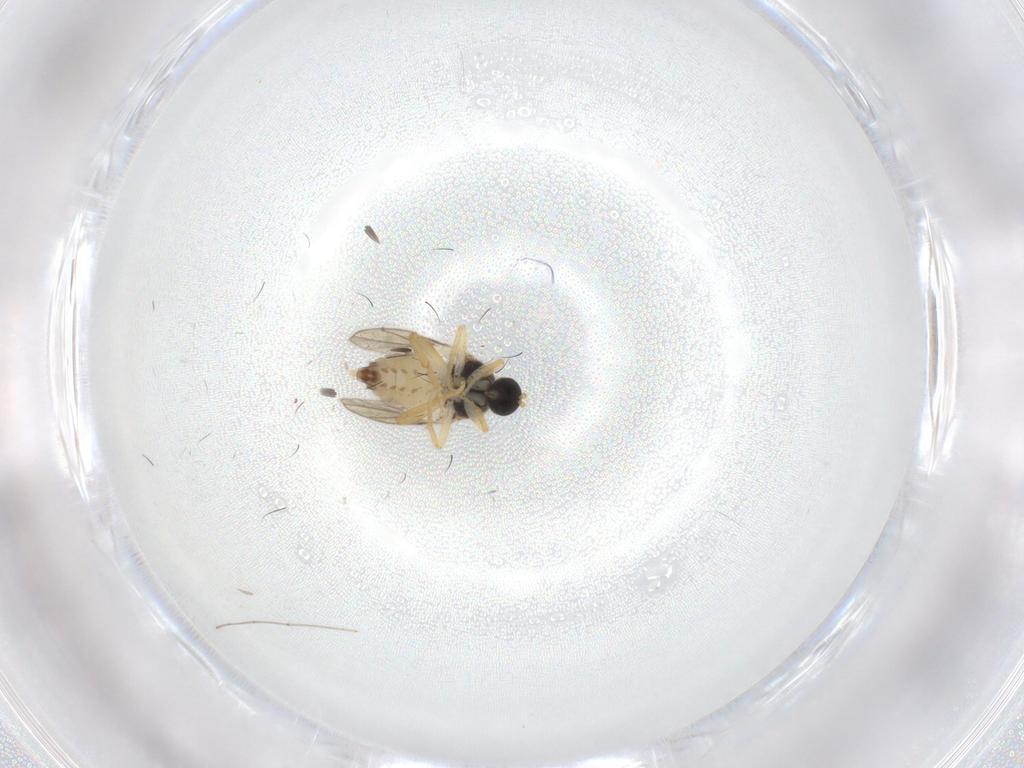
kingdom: Animalia
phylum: Arthropoda
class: Insecta
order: Diptera
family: Hybotidae
